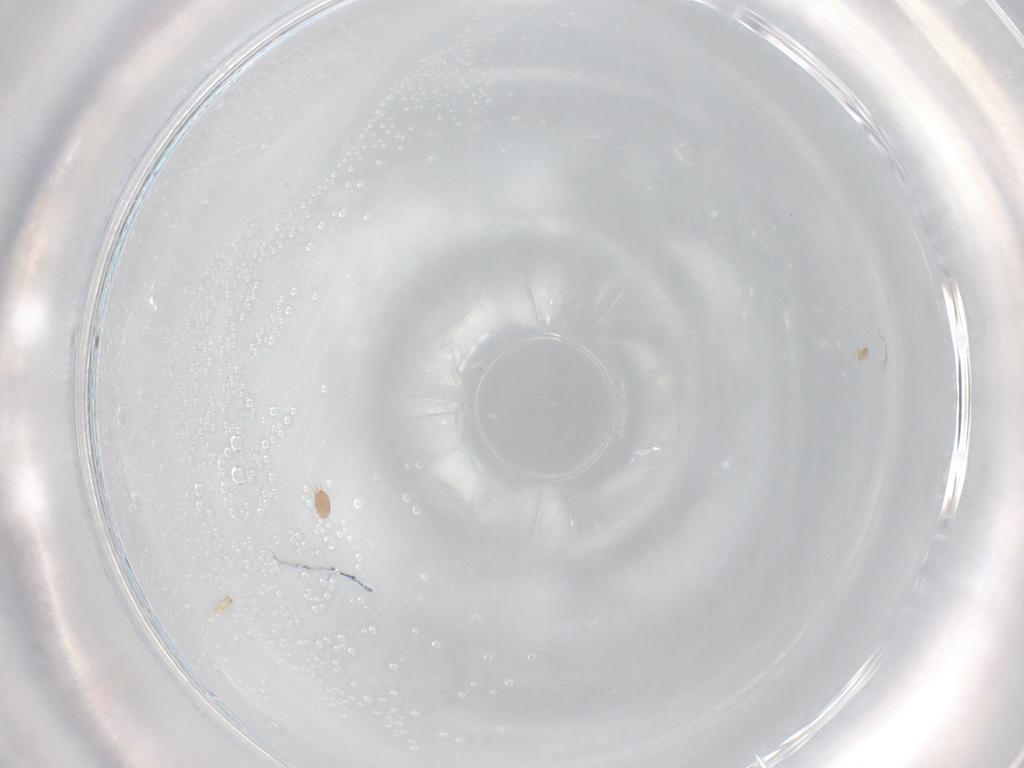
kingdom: Animalia
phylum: Arthropoda
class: Arachnida
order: Sarcoptiformes
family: Hemisarcoptidae
